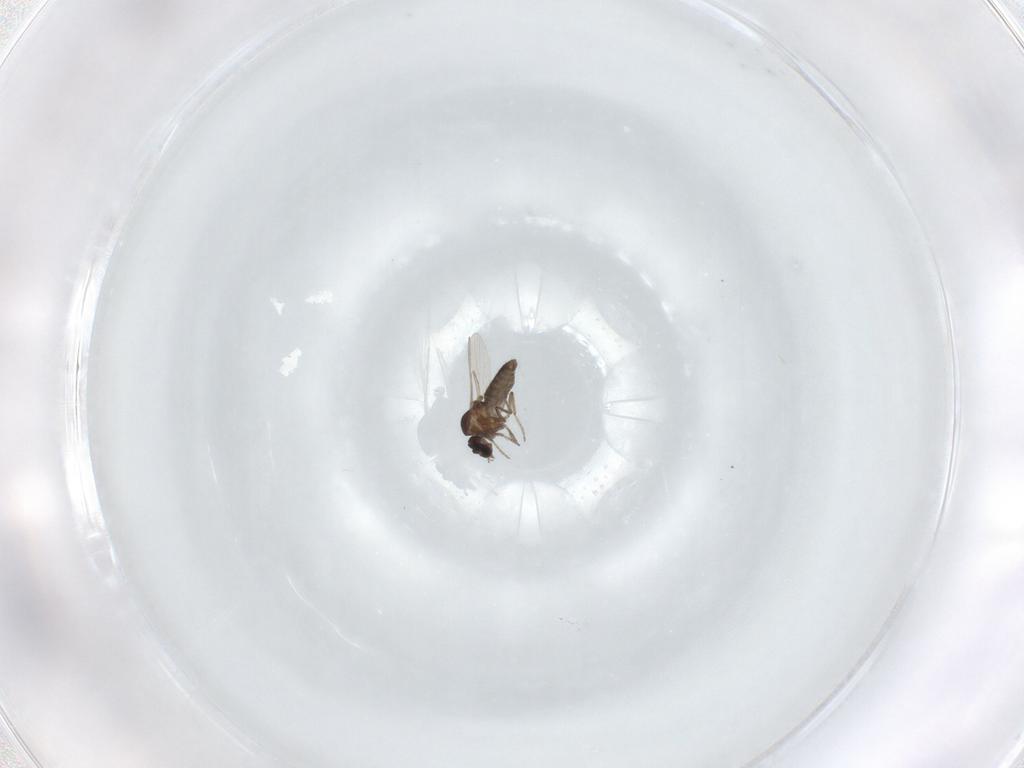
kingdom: Animalia
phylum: Arthropoda
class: Insecta
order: Diptera
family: Ceratopogonidae
